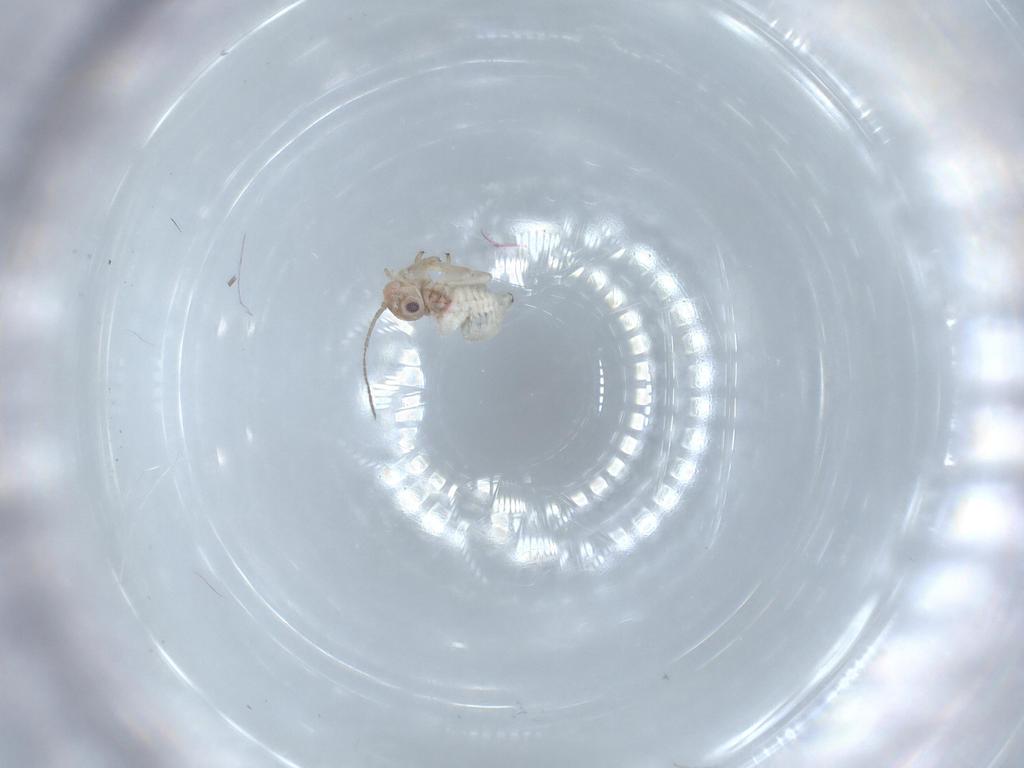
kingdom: Animalia
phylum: Arthropoda
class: Insecta
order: Psocodea
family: Psocidae
